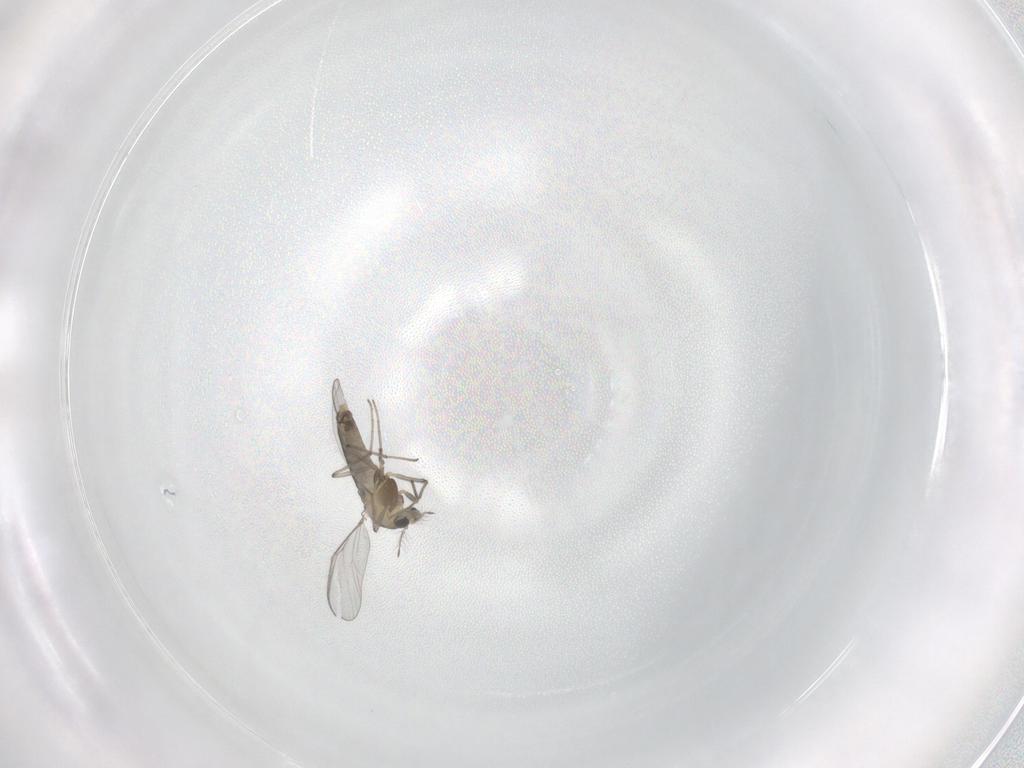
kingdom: Animalia
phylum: Arthropoda
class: Insecta
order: Diptera
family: Chironomidae
